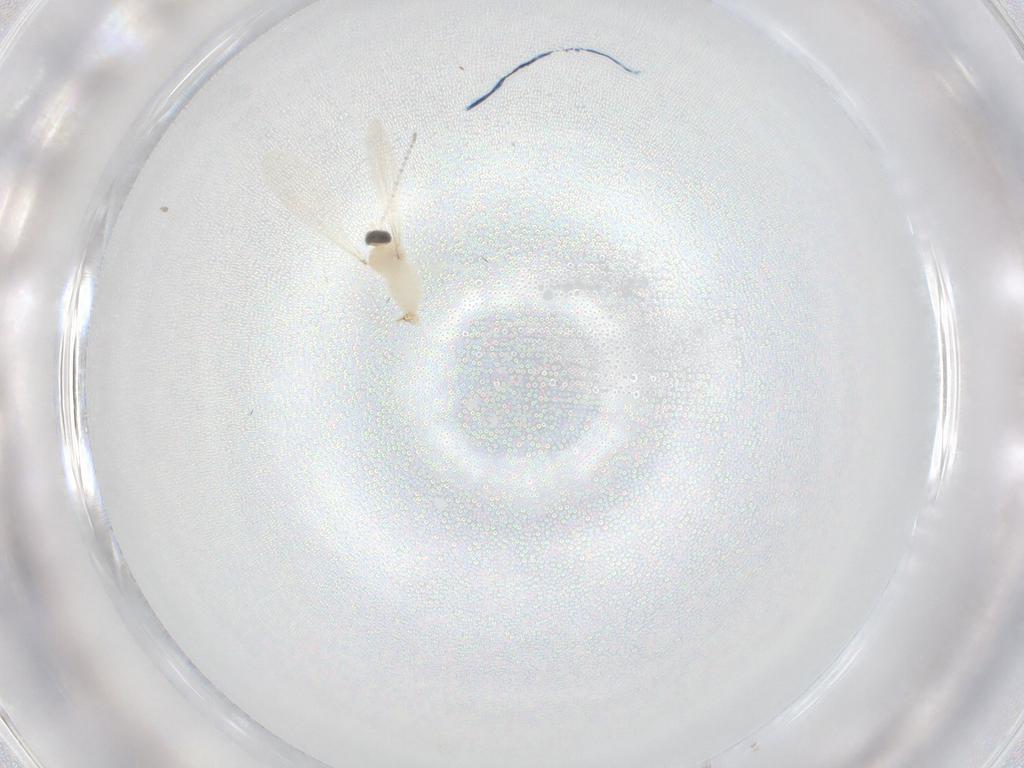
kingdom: Animalia
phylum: Arthropoda
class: Insecta
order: Diptera
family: Cecidomyiidae
